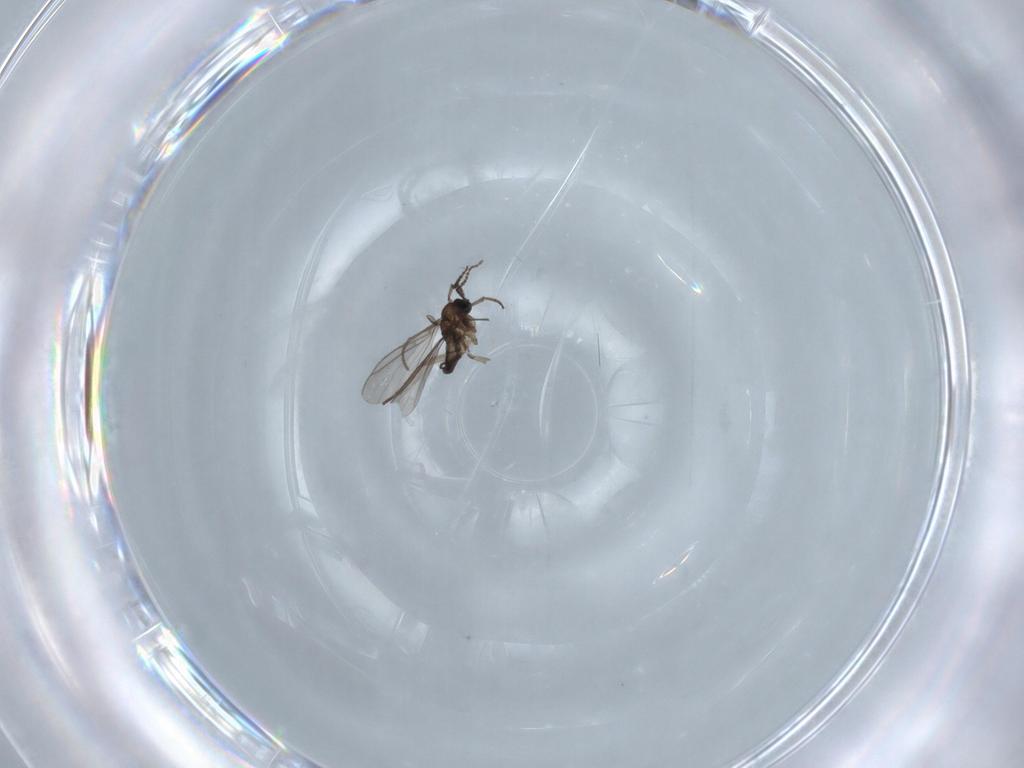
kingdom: Animalia
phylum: Arthropoda
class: Insecta
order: Diptera
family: Chironomidae
